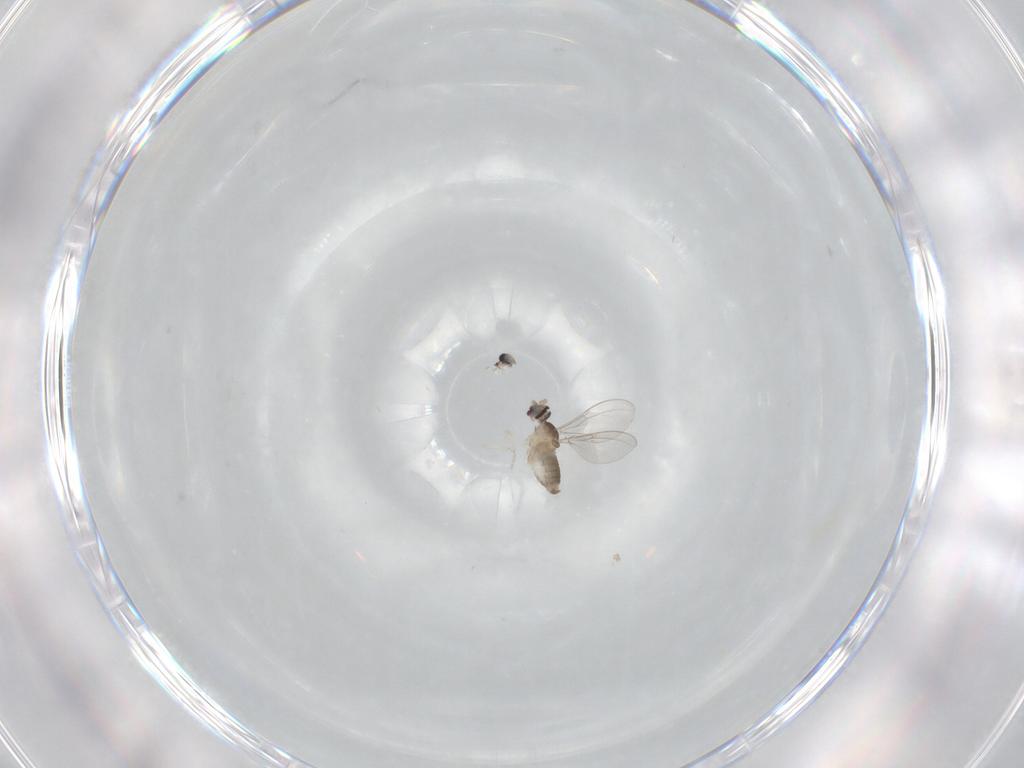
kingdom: Animalia
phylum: Arthropoda
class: Insecta
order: Diptera
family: Cecidomyiidae
